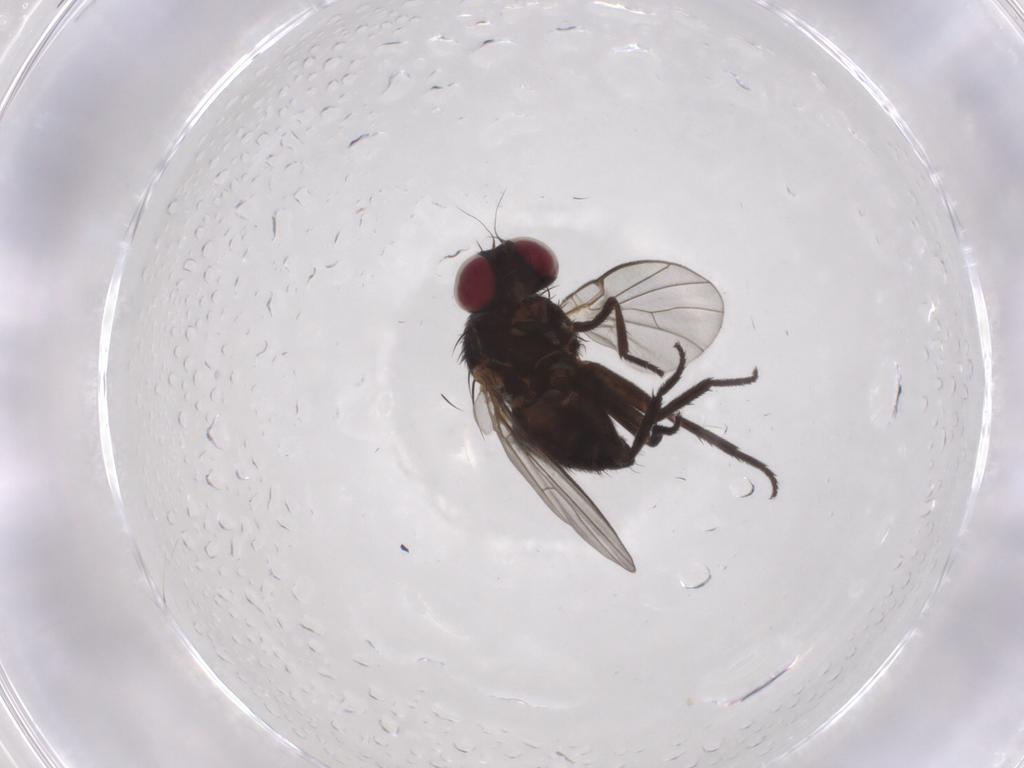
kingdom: Animalia
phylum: Arthropoda
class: Insecta
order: Diptera
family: Agromyzidae
